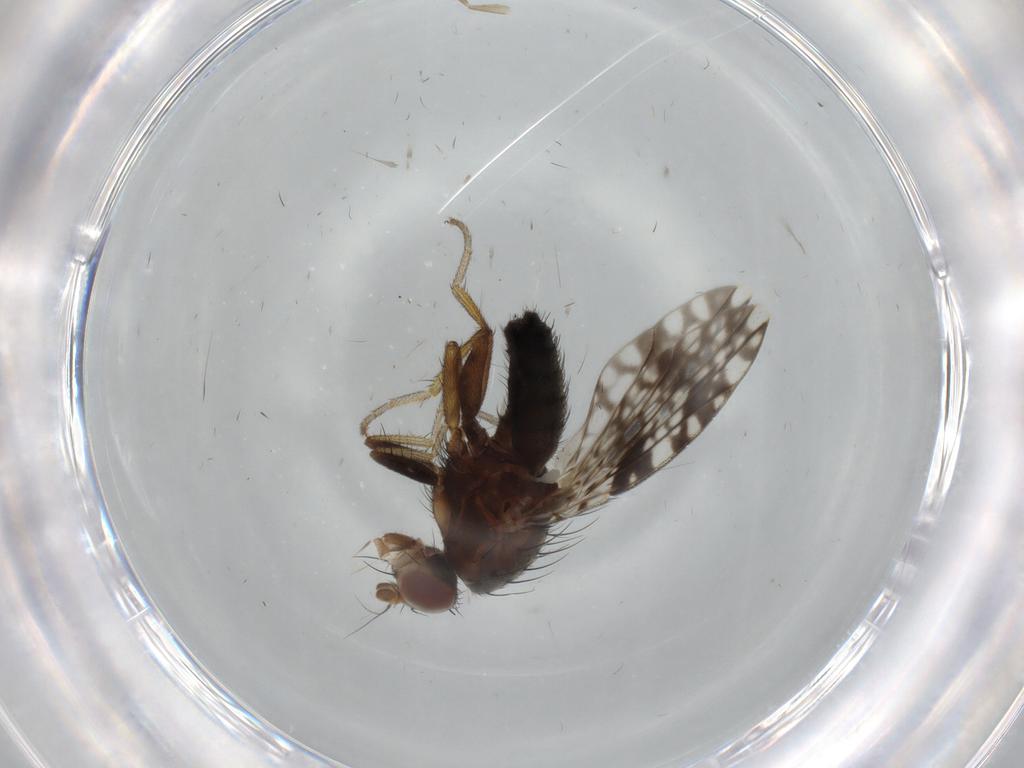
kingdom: Animalia
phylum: Arthropoda
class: Insecta
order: Diptera
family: Tephritidae
